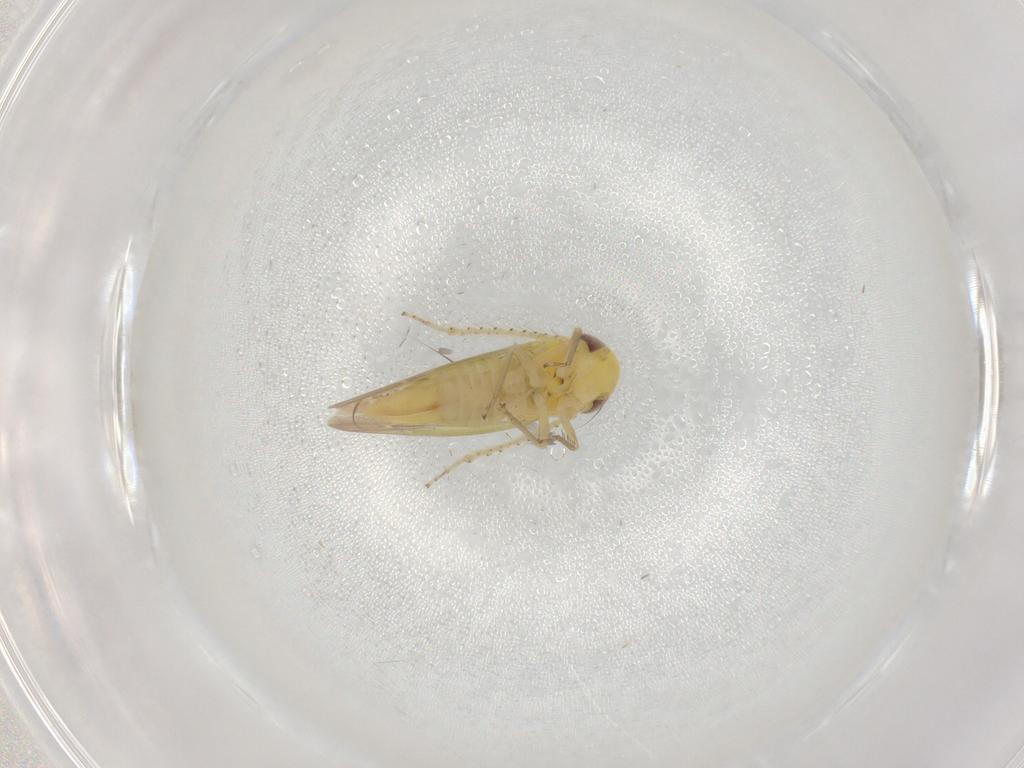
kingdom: Animalia
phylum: Arthropoda
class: Insecta
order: Hemiptera
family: Cicadellidae
